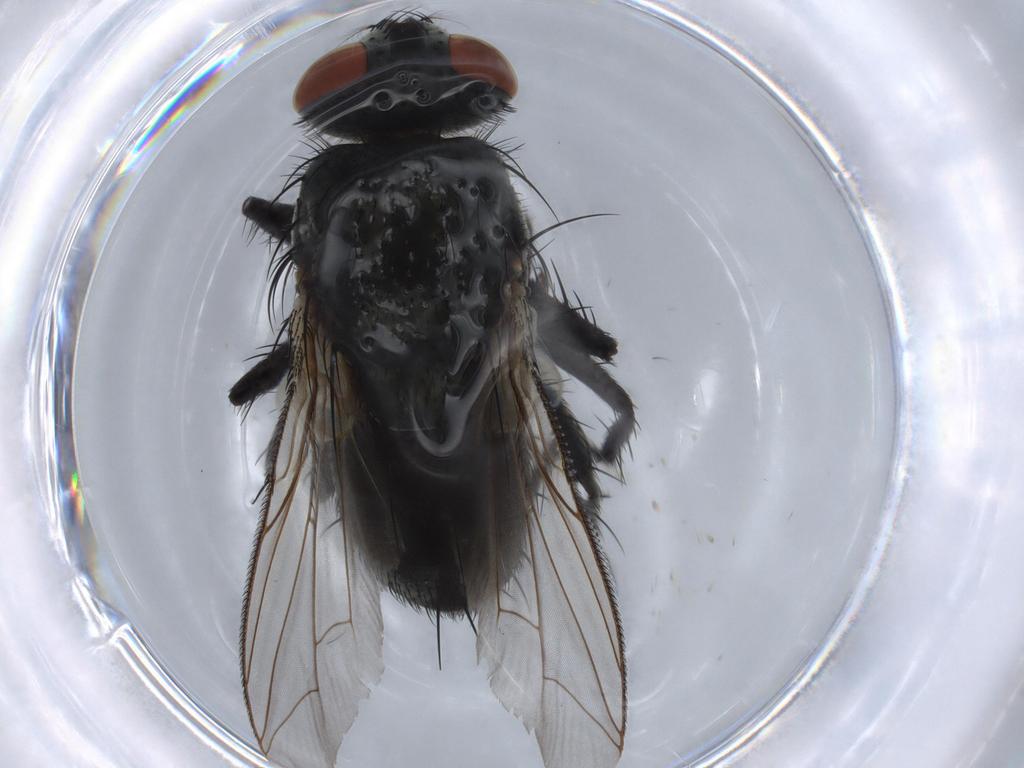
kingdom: Animalia
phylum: Arthropoda
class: Insecta
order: Diptera
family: Sarcophagidae
